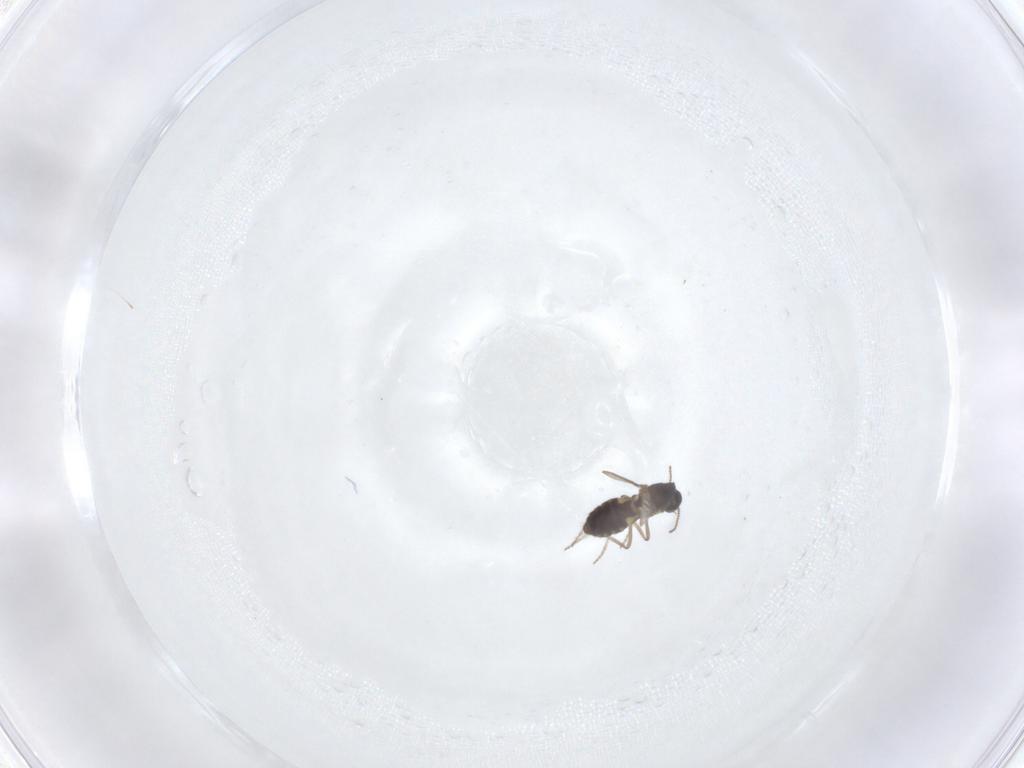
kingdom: Animalia
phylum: Arthropoda
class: Insecta
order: Diptera
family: Ceratopogonidae
